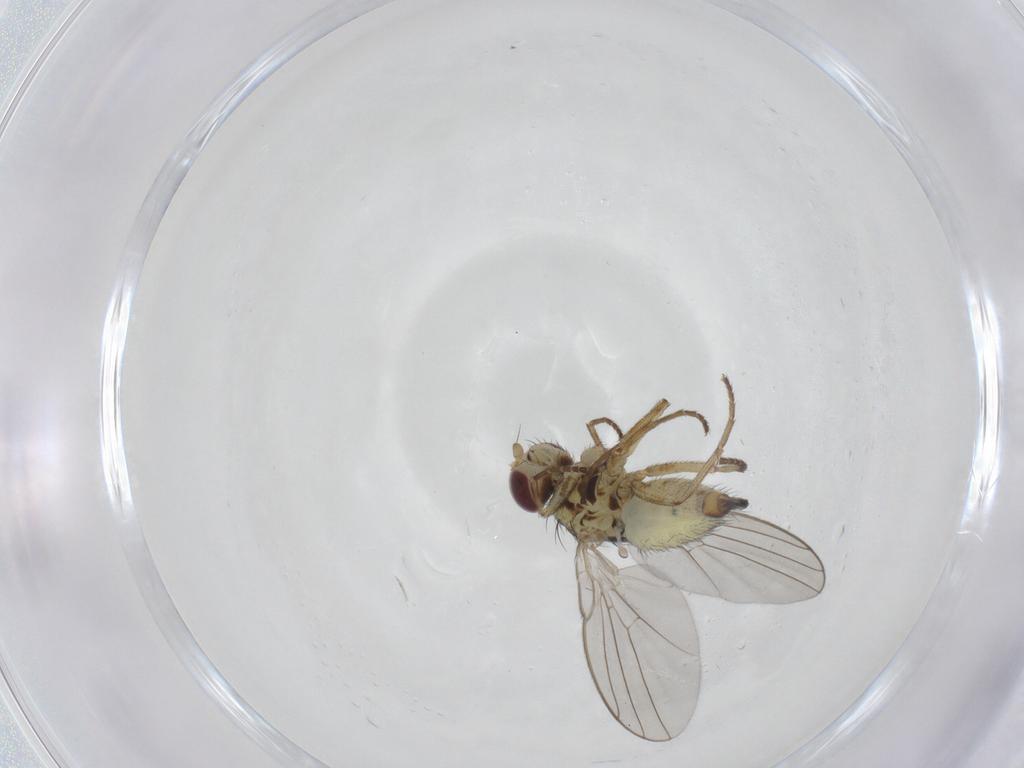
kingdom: Animalia
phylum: Arthropoda
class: Insecta
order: Diptera
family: Agromyzidae
